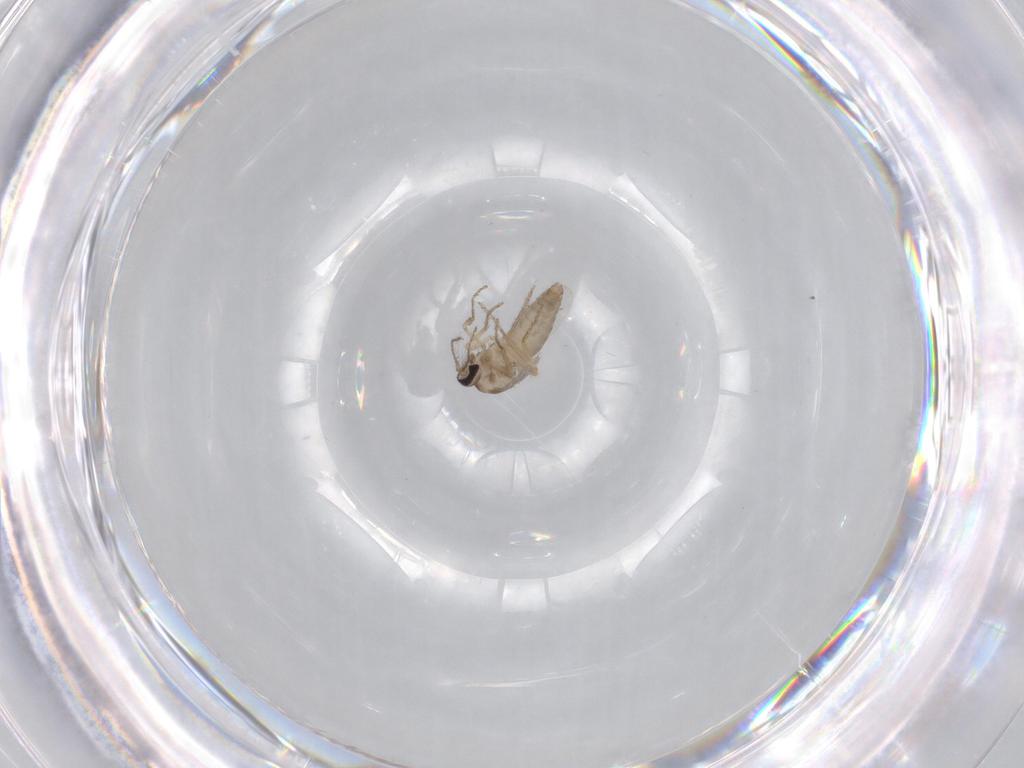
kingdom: Animalia
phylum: Arthropoda
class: Insecta
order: Diptera
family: Ceratopogonidae
